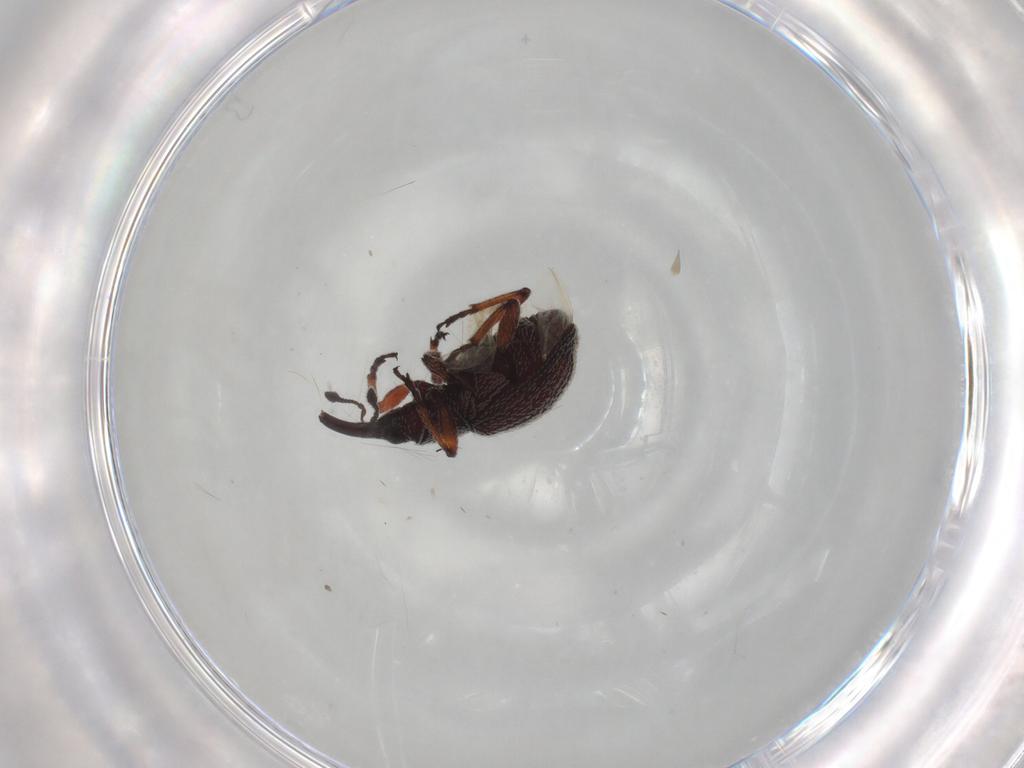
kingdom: Animalia
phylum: Arthropoda
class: Insecta
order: Coleoptera
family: Brentidae
